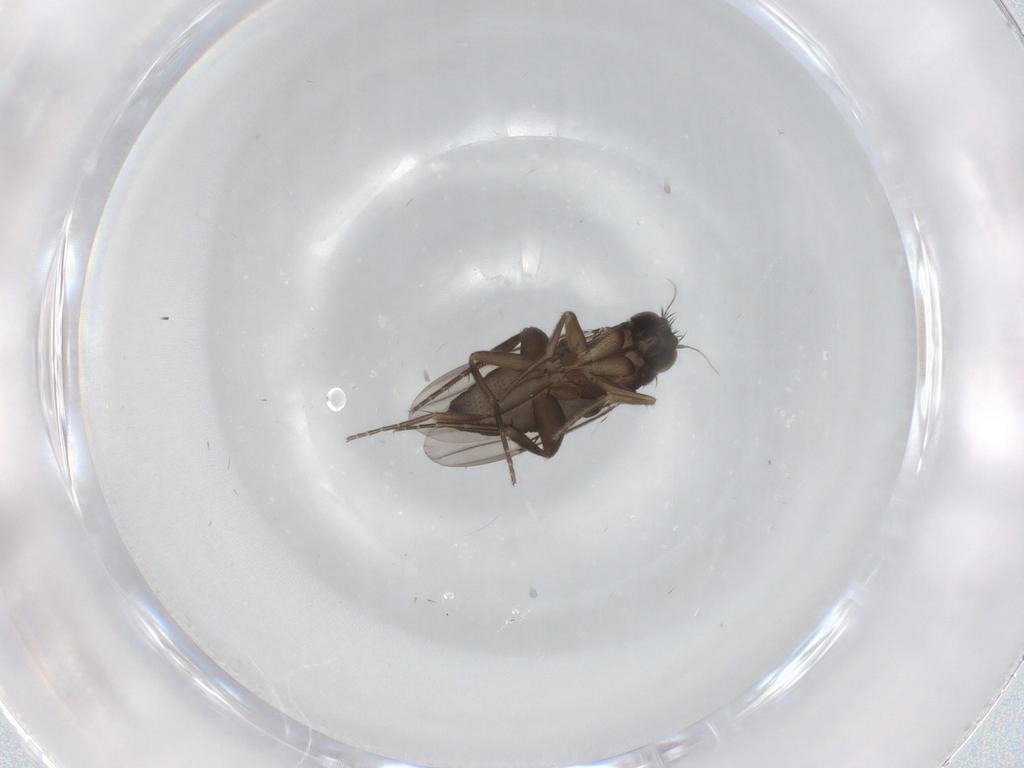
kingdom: Animalia
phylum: Arthropoda
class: Insecta
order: Diptera
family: Phoridae
